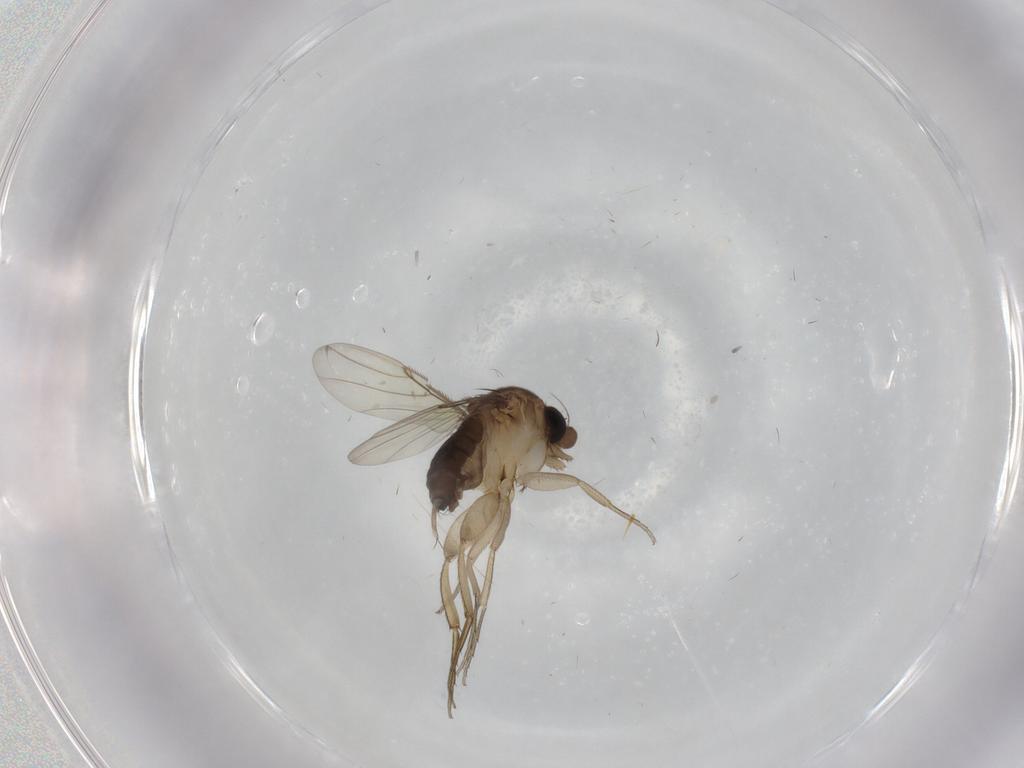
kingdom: Animalia
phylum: Arthropoda
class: Insecta
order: Diptera
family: Phoridae
